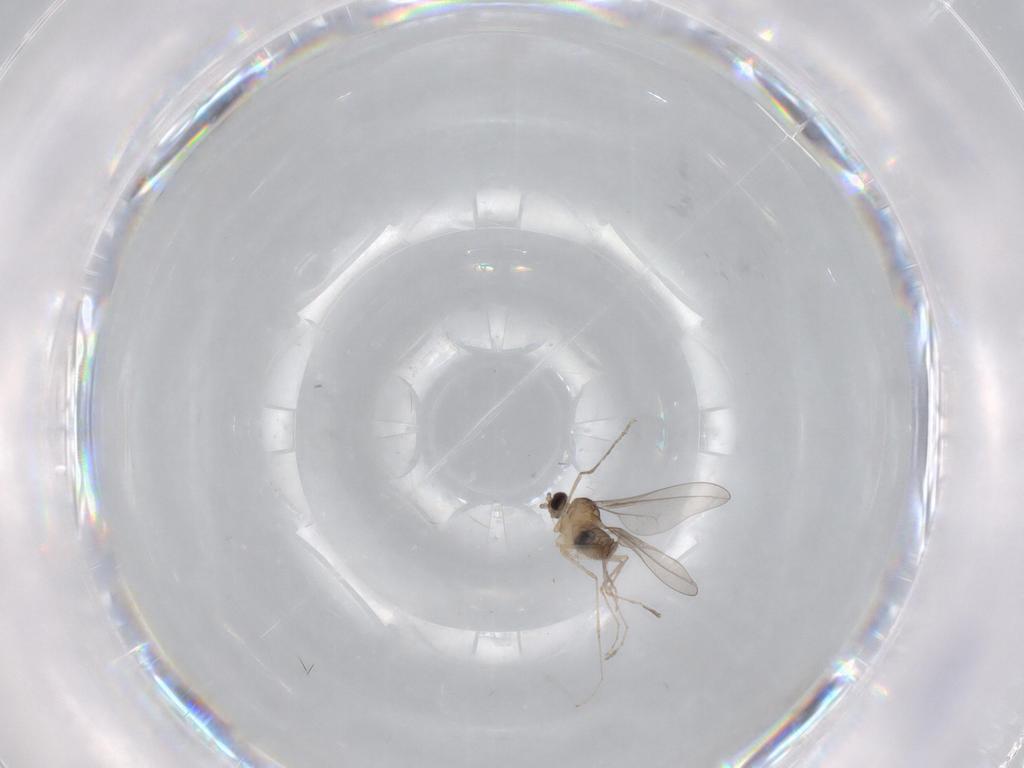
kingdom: Animalia
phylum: Arthropoda
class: Insecta
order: Diptera
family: Cecidomyiidae
